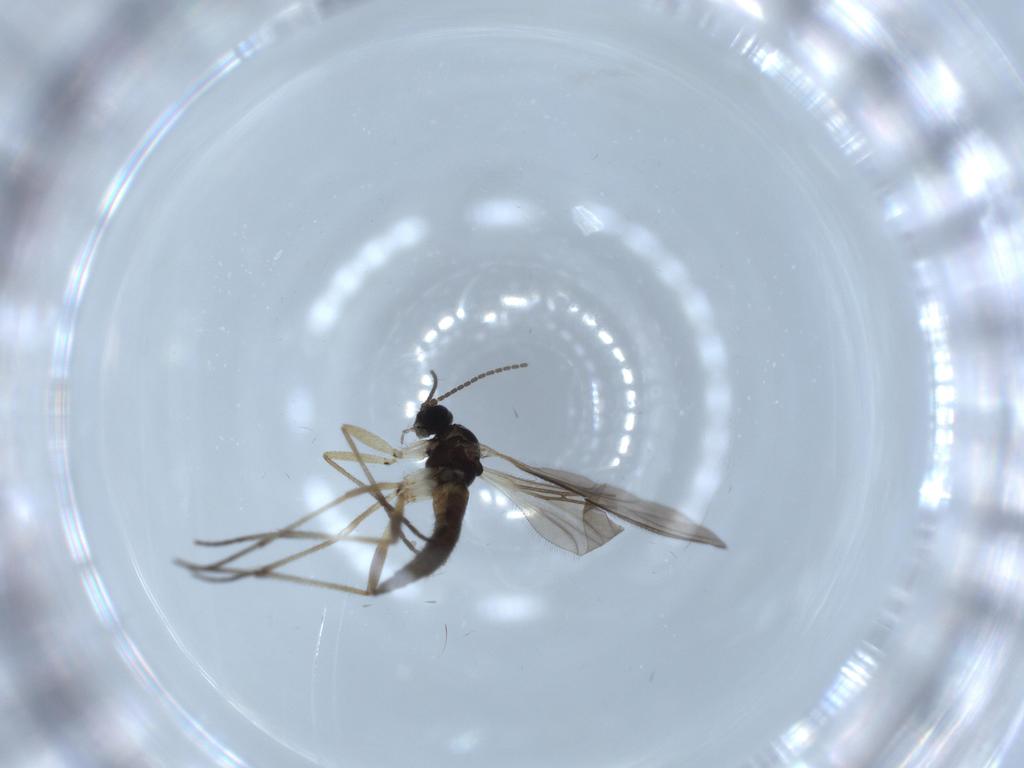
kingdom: Animalia
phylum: Arthropoda
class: Insecta
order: Diptera
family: Sciaridae
